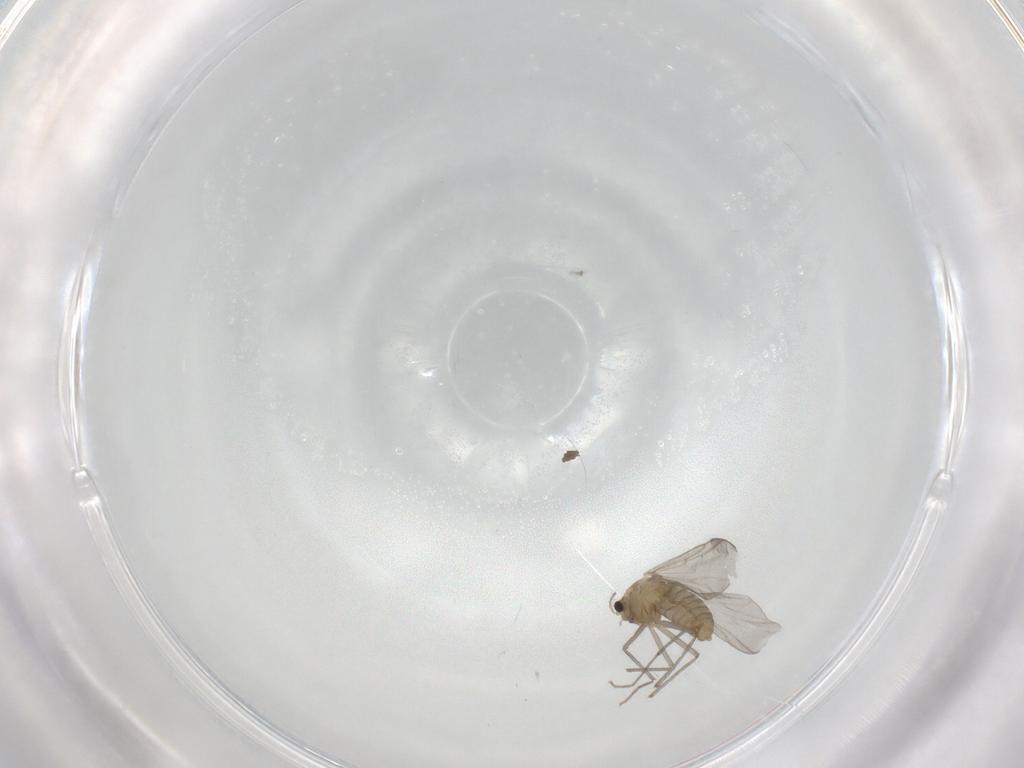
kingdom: Animalia
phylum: Arthropoda
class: Insecta
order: Diptera
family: Chironomidae
